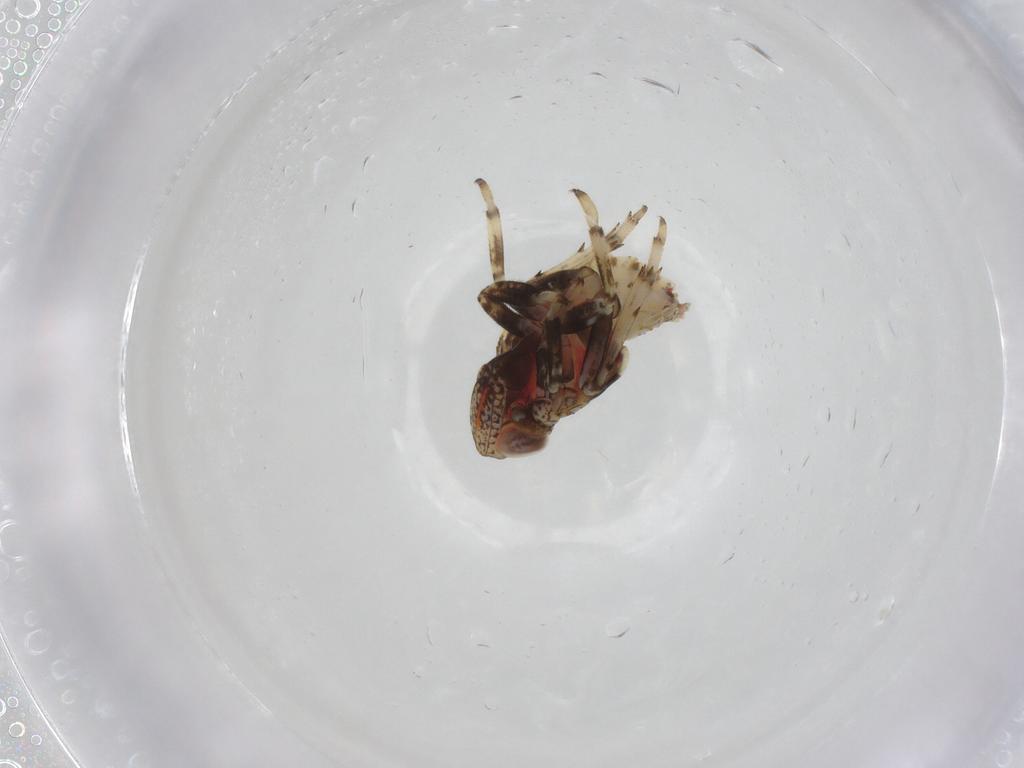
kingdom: Animalia
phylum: Arthropoda
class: Insecta
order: Hemiptera
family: Issidae
